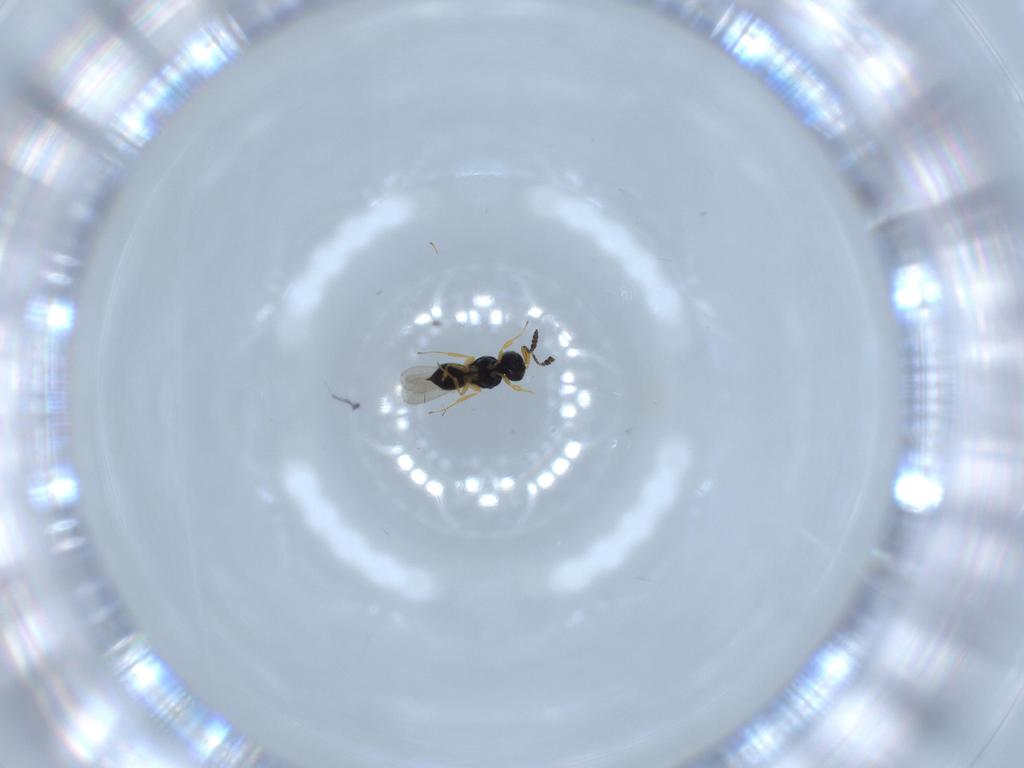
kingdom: Animalia
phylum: Arthropoda
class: Insecta
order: Hymenoptera
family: Scelionidae
